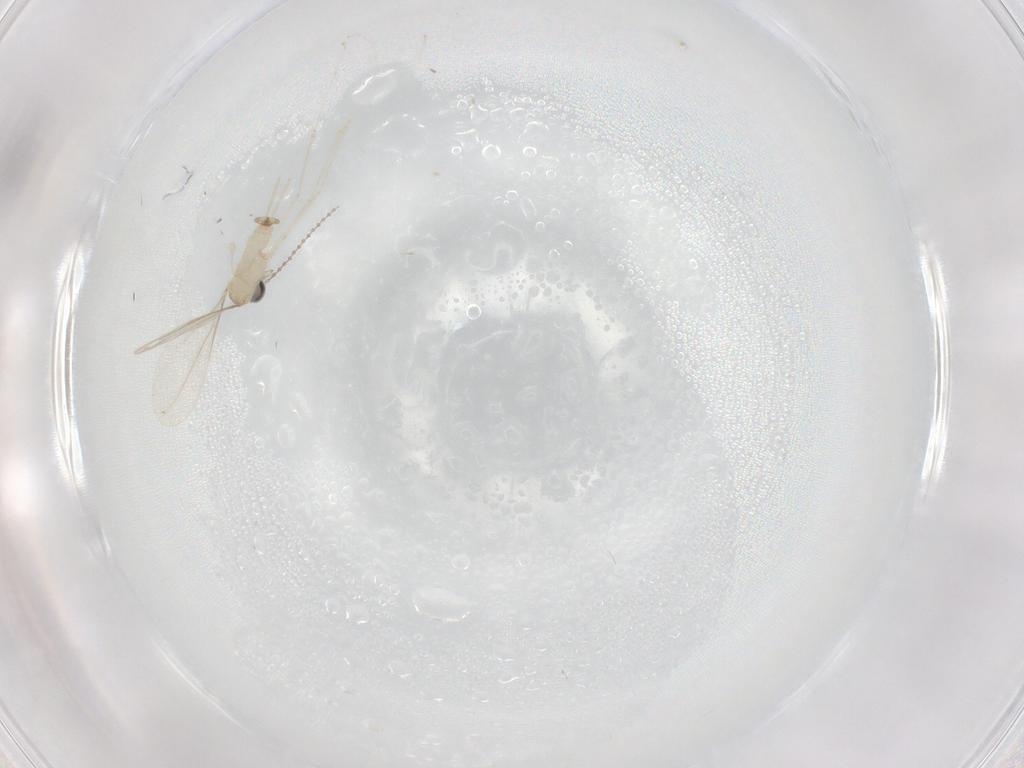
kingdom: Animalia
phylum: Arthropoda
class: Insecta
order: Diptera
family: Cecidomyiidae
